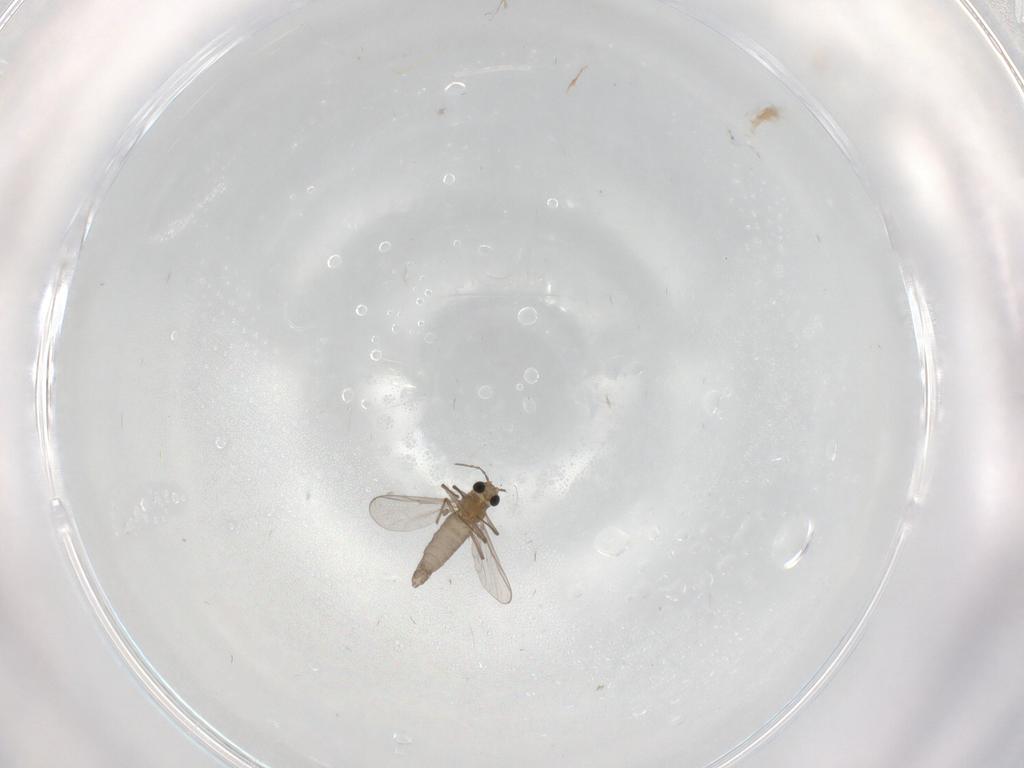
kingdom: Animalia
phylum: Arthropoda
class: Insecta
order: Diptera
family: Chironomidae
